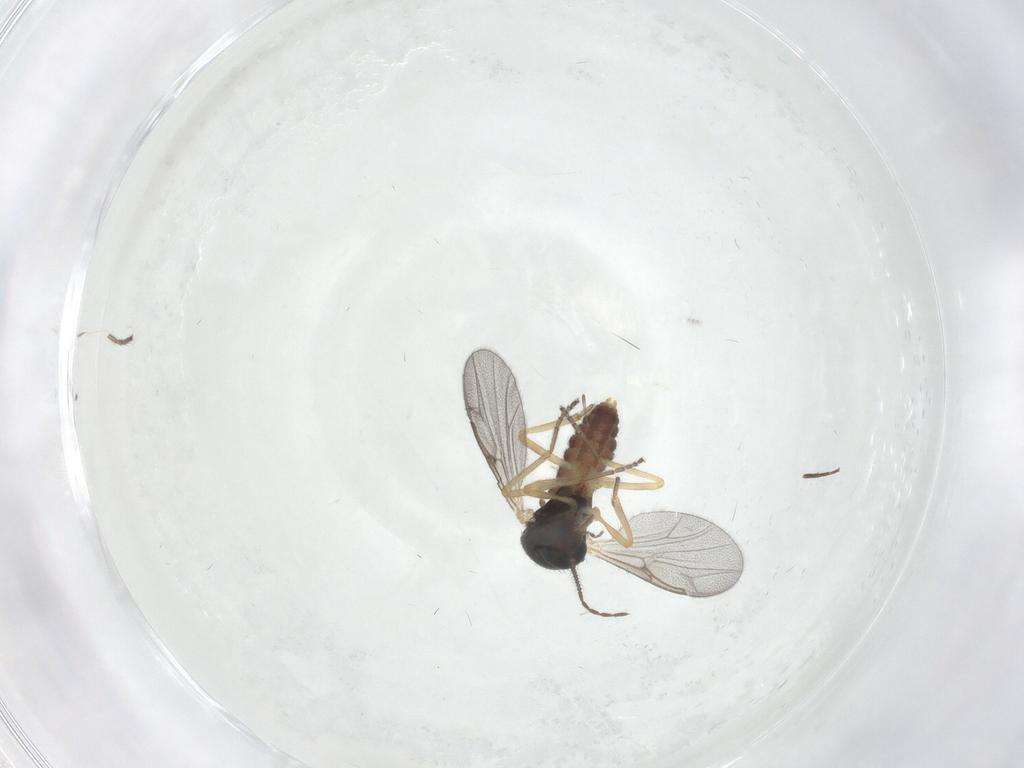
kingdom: Animalia
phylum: Arthropoda
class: Insecta
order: Diptera
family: Ceratopogonidae
